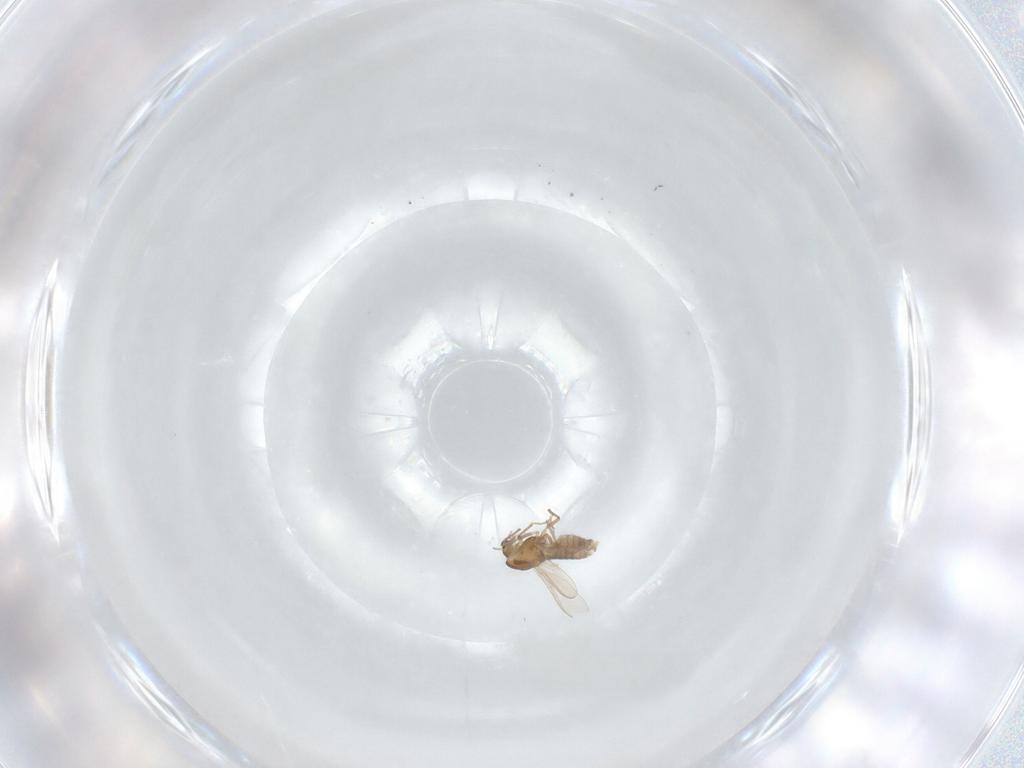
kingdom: Animalia
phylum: Arthropoda
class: Insecta
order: Diptera
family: Chironomidae
